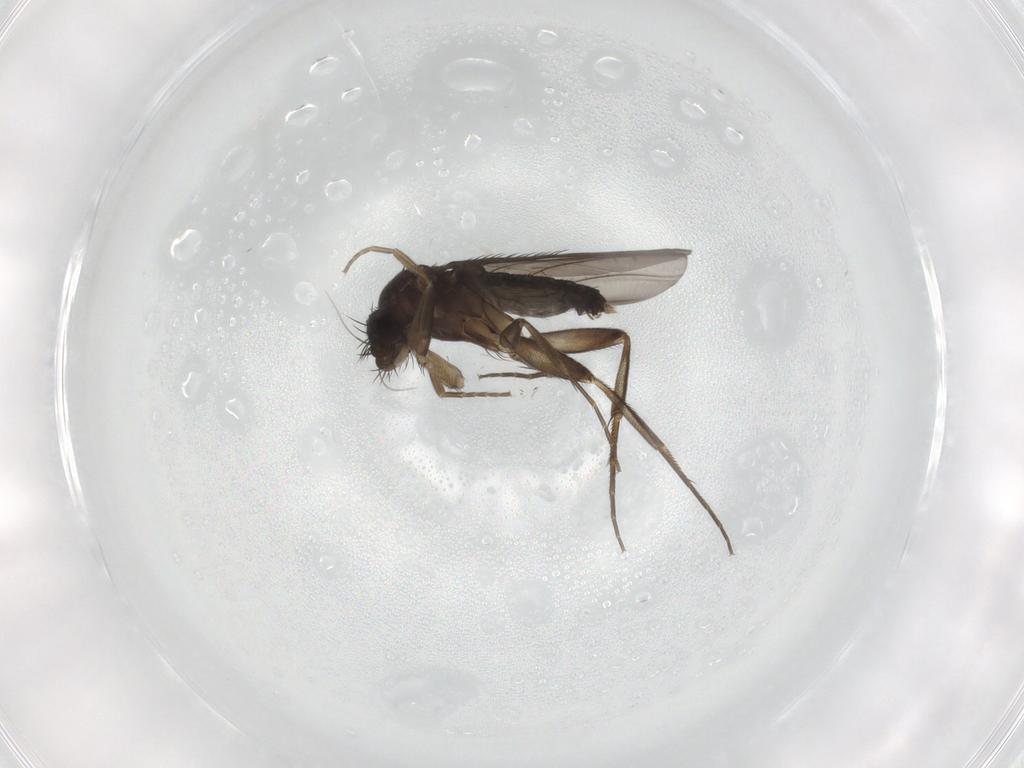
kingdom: Animalia
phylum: Arthropoda
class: Insecta
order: Diptera
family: Phoridae
